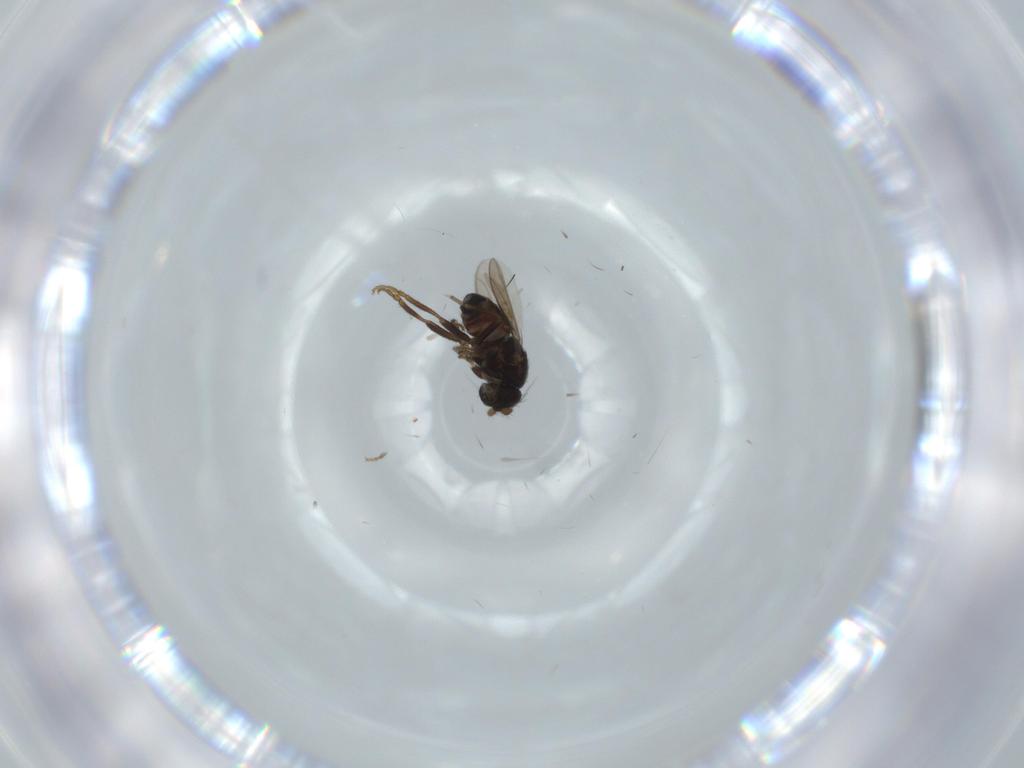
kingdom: Animalia
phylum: Arthropoda
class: Insecta
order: Diptera
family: Sphaeroceridae
